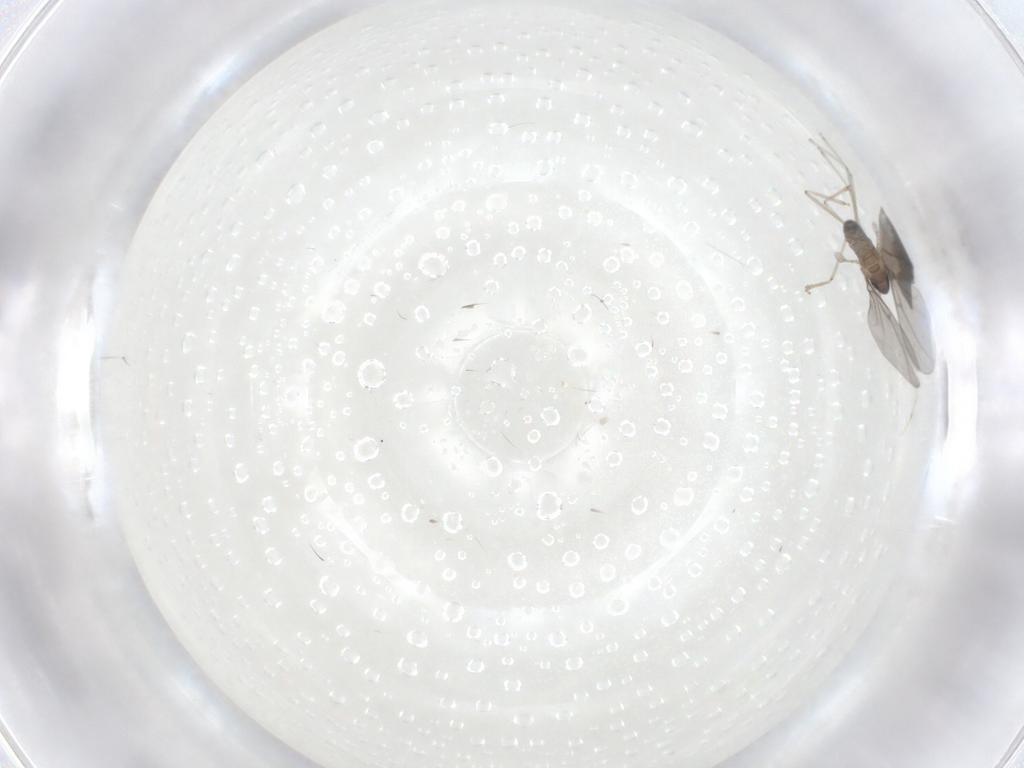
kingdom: Animalia
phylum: Arthropoda
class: Insecta
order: Diptera
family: Cecidomyiidae
